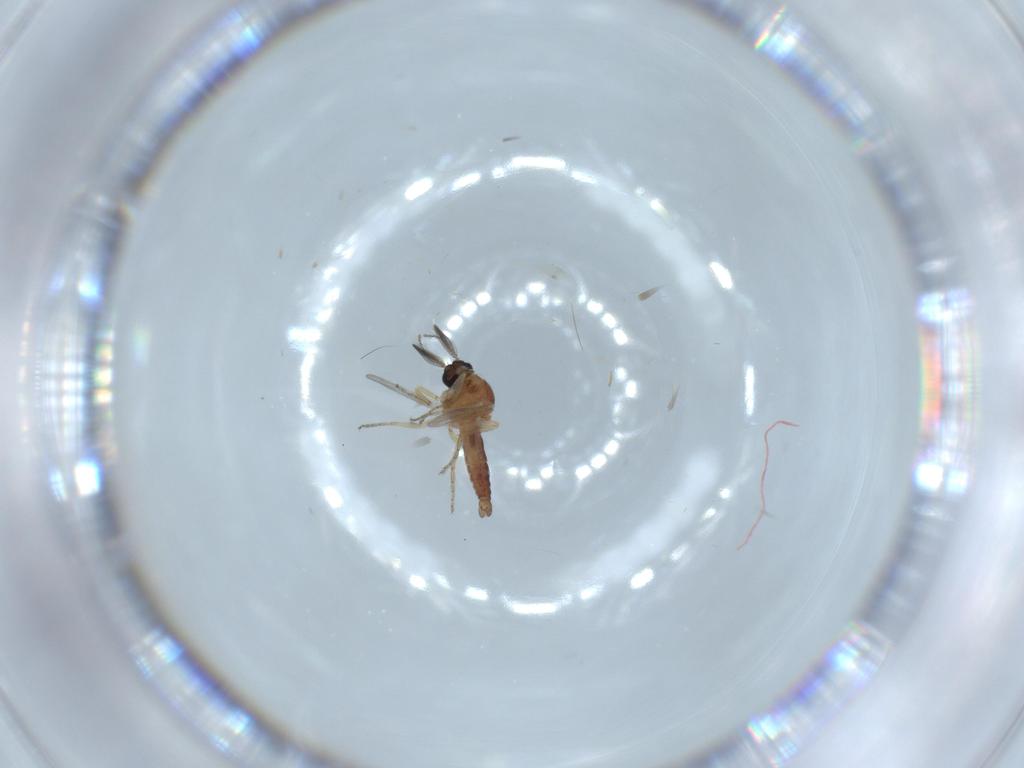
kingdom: Animalia
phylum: Arthropoda
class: Insecta
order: Diptera
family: Ceratopogonidae
